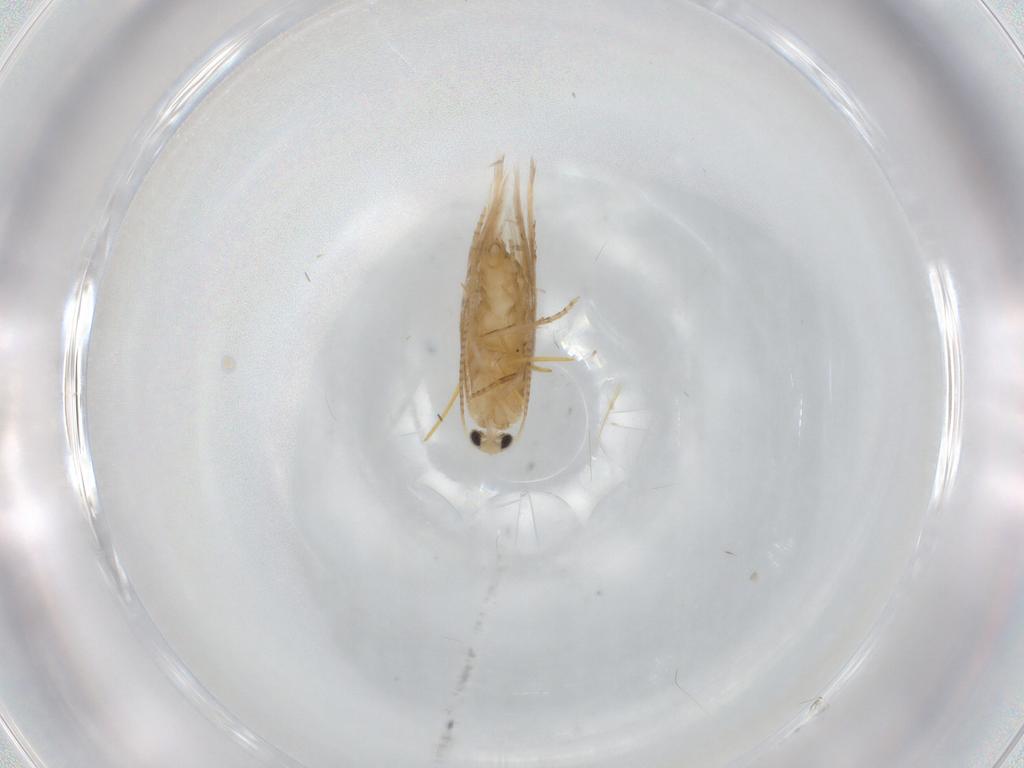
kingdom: Animalia
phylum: Arthropoda
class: Insecta
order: Lepidoptera
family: Bucculatricidae
